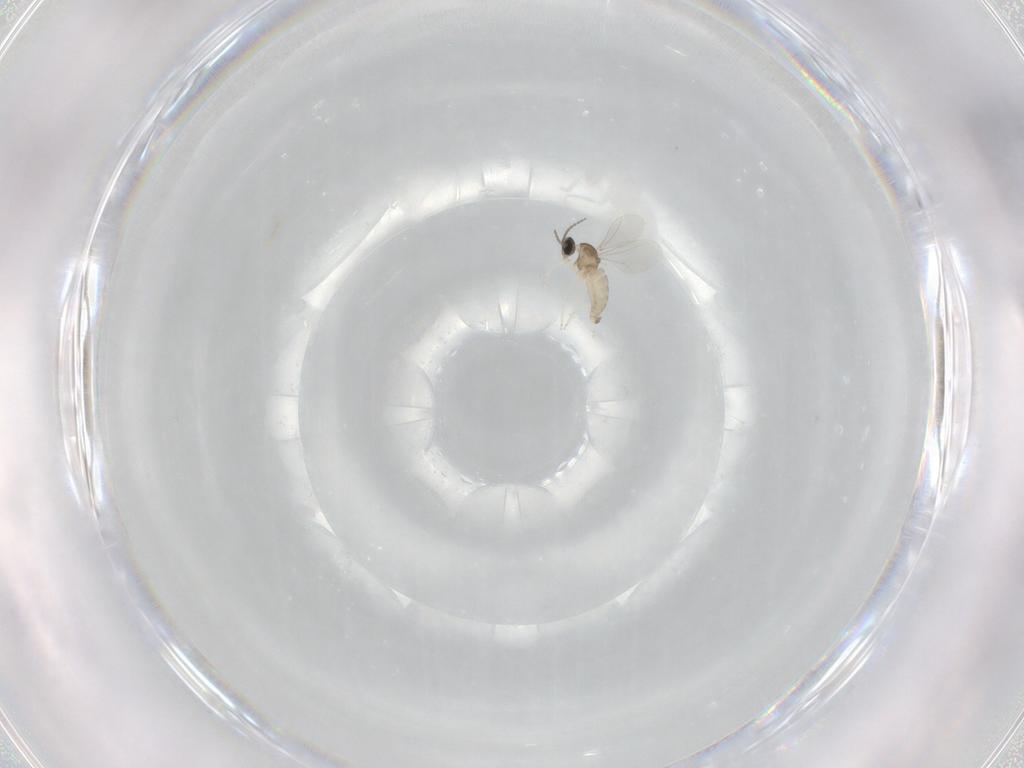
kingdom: Animalia
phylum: Arthropoda
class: Insecta
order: Diptera
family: Cecidomyiidae
